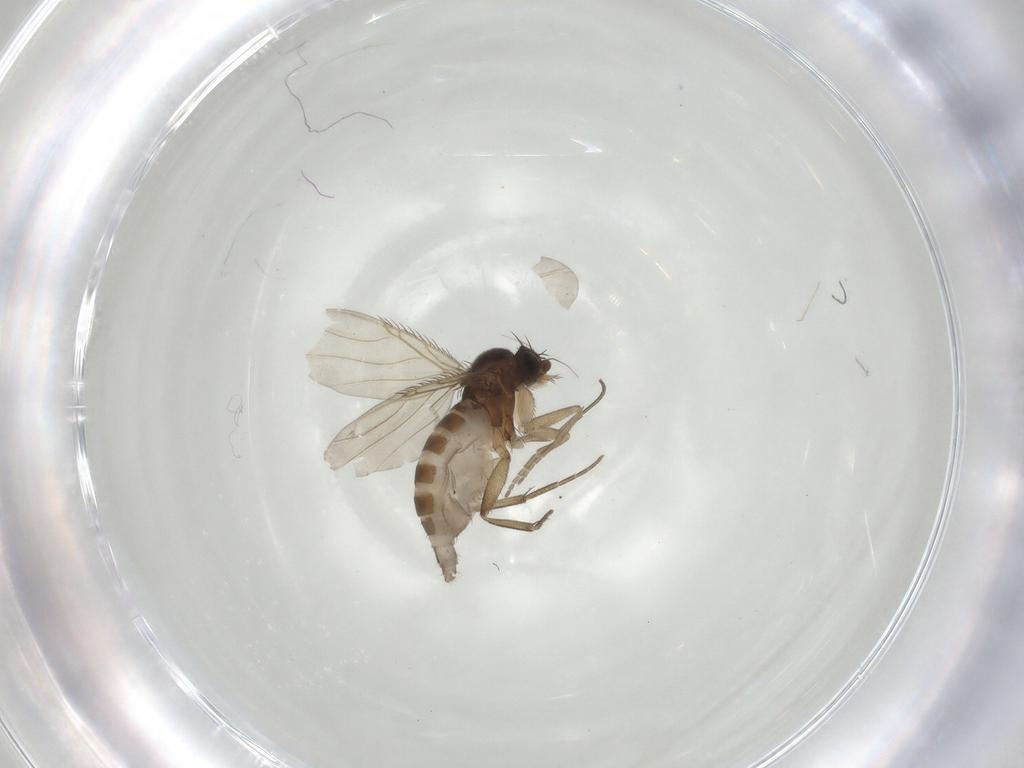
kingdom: Animalia
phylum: Arthropoda
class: Insecta
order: Diptera
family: Phoridae
